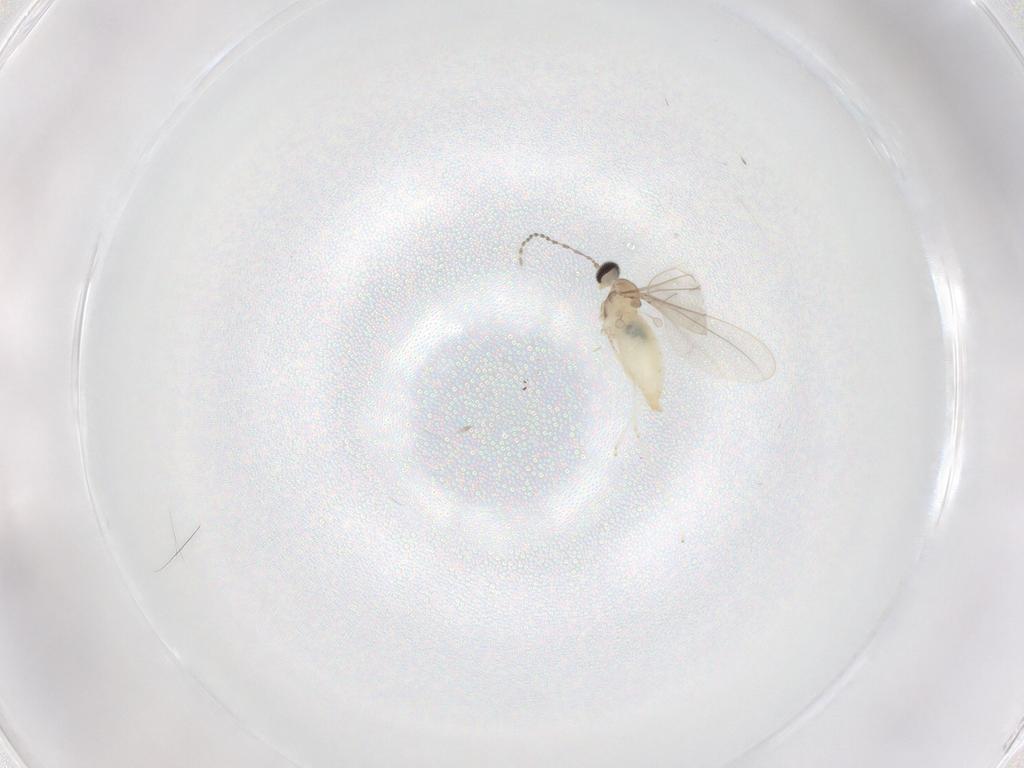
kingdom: Animalia
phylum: Arthropoda
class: Insecta
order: Diptera
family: Cecidomyiidae
